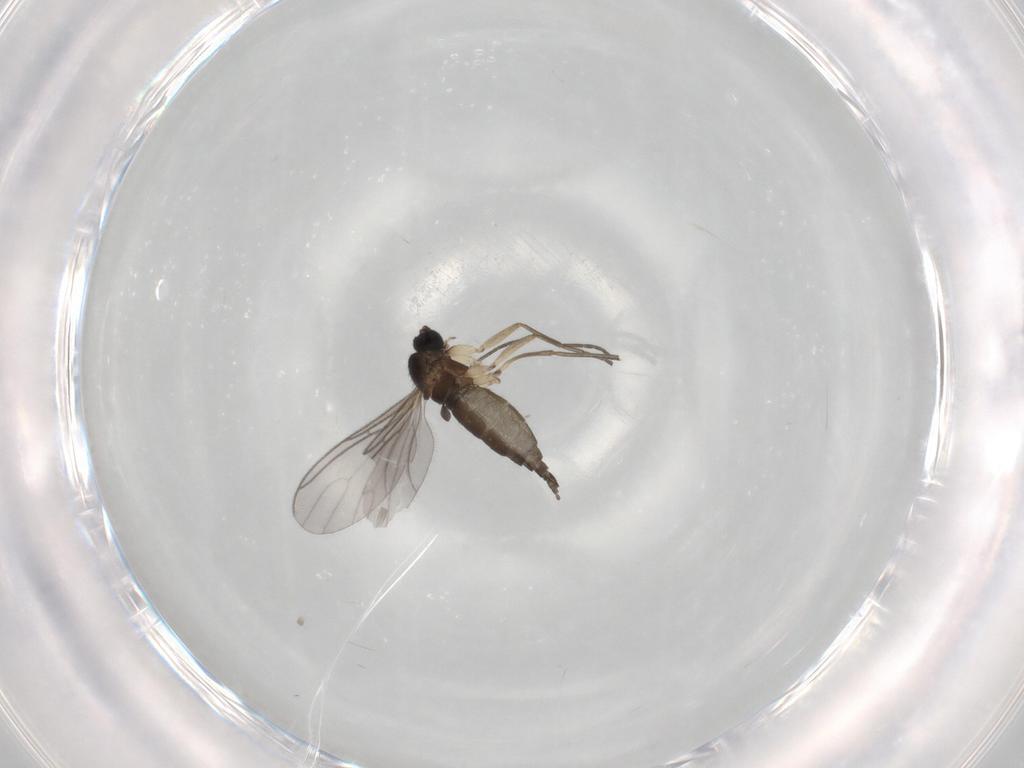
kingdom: Animalia
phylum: Arthropoda
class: Insecta
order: Diptera
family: Sciaridae
